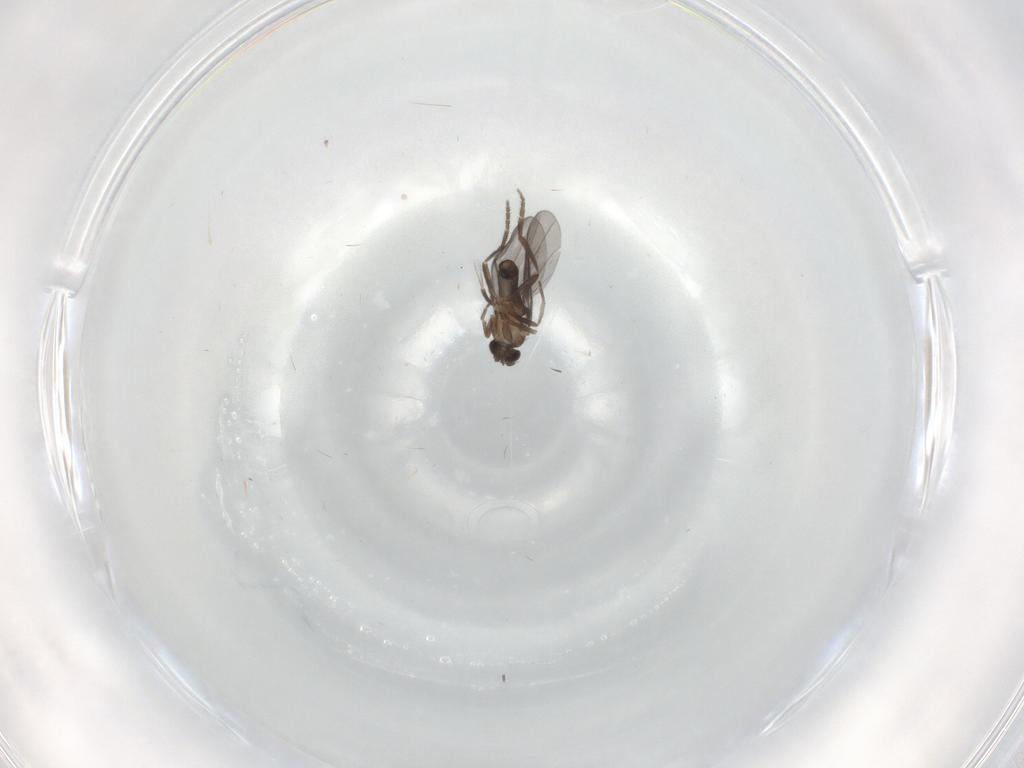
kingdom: Animalia
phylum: Arthropoda
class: Insecta
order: Diptera
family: Phoridae
